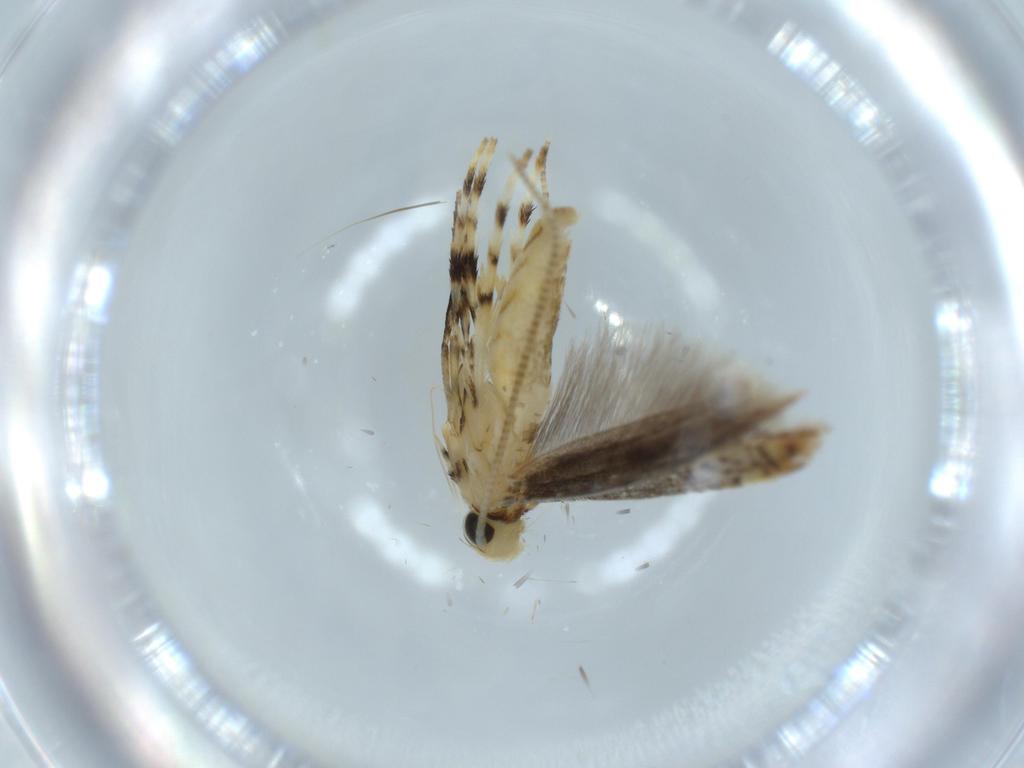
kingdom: Animalia
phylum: Arthropoda
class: Insecta
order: Lepidoptera
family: Gracillariidae
